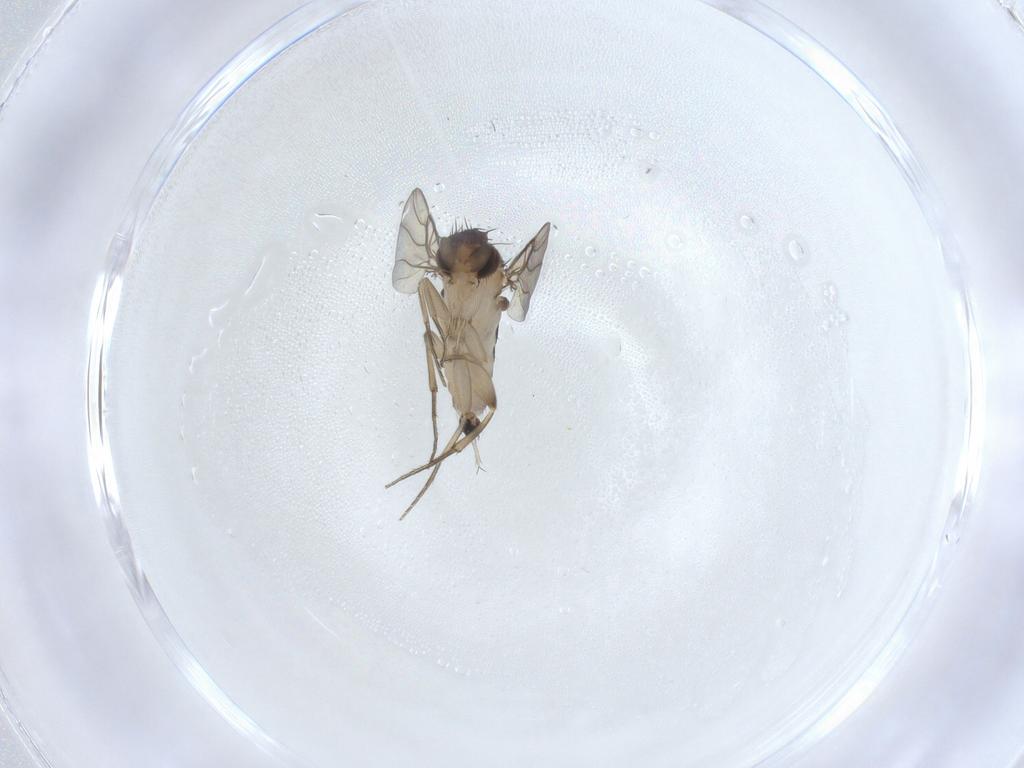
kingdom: Animalia
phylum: Arthropoda
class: Insecta
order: Diptera
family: Phoridae
